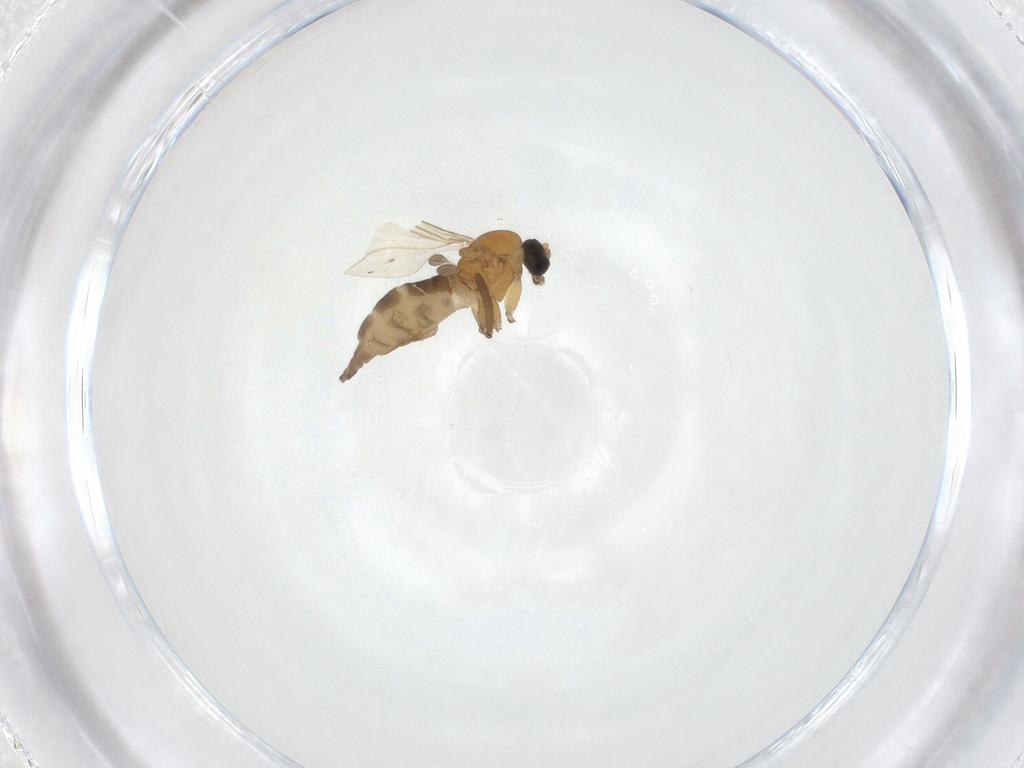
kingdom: Animalia
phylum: Arthropoda
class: Insecta
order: Diptera
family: Sciaridae
